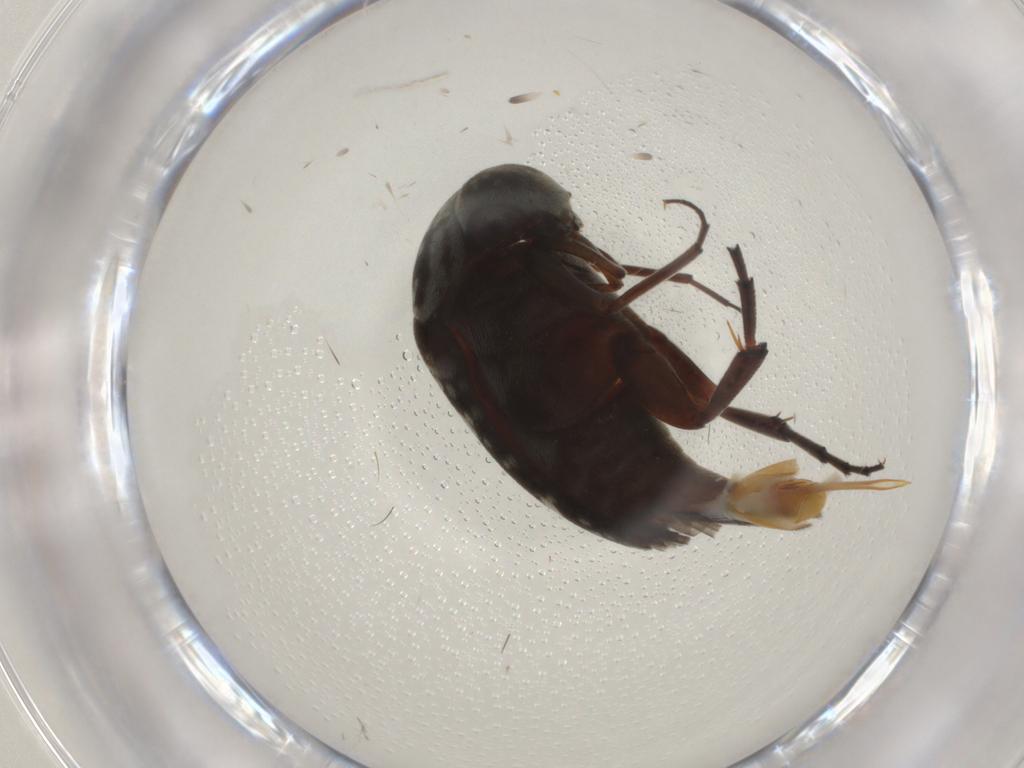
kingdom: Animalia
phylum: Arthropoda
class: Insecta
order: Coleoptera
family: Mordellidae
